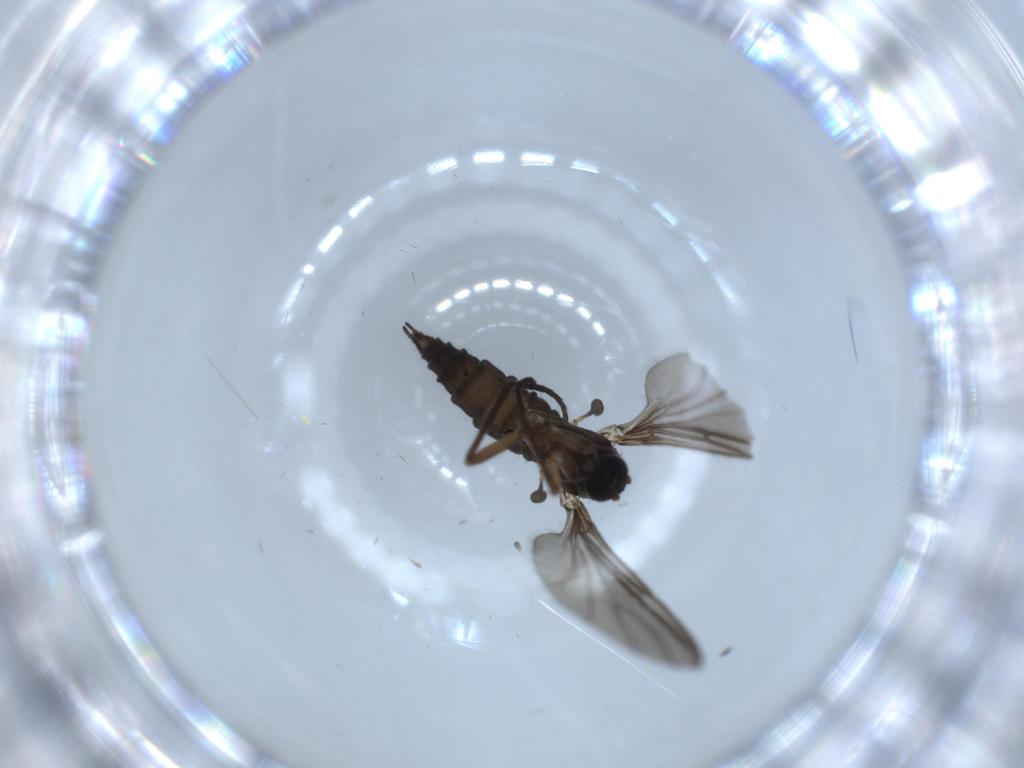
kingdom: Animalia
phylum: Arthropoda
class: Insecta
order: Diptera
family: Sciaridae
